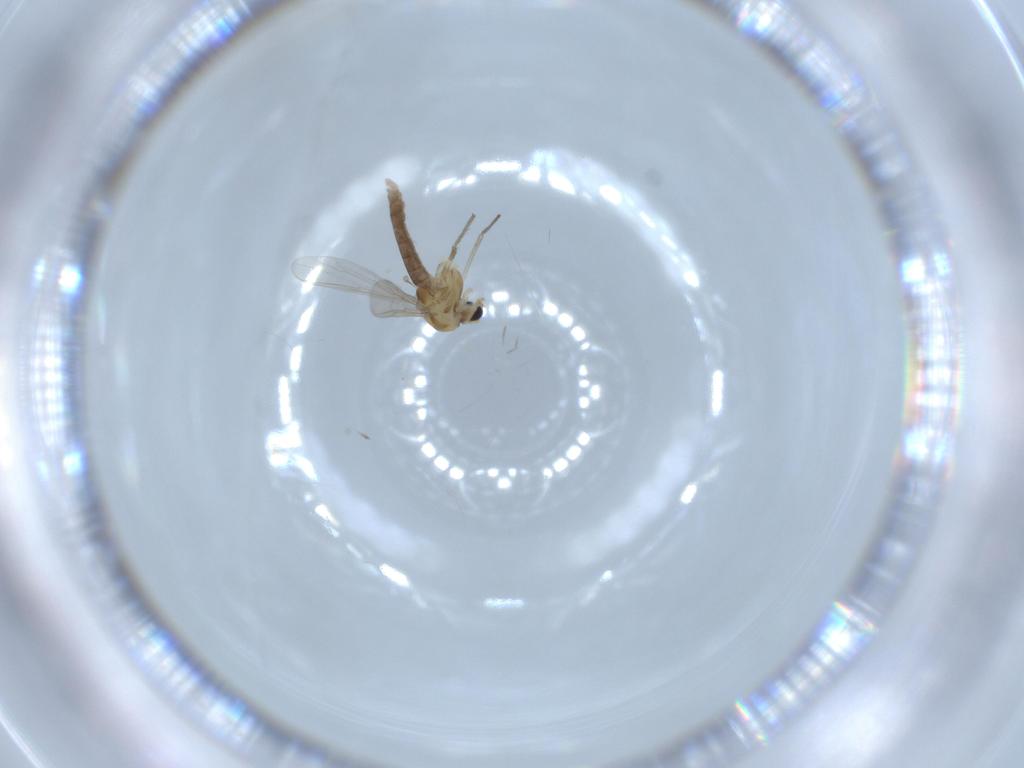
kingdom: Animalia
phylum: Arthropoda
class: Insecta
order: Diptera
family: Chironomidae
